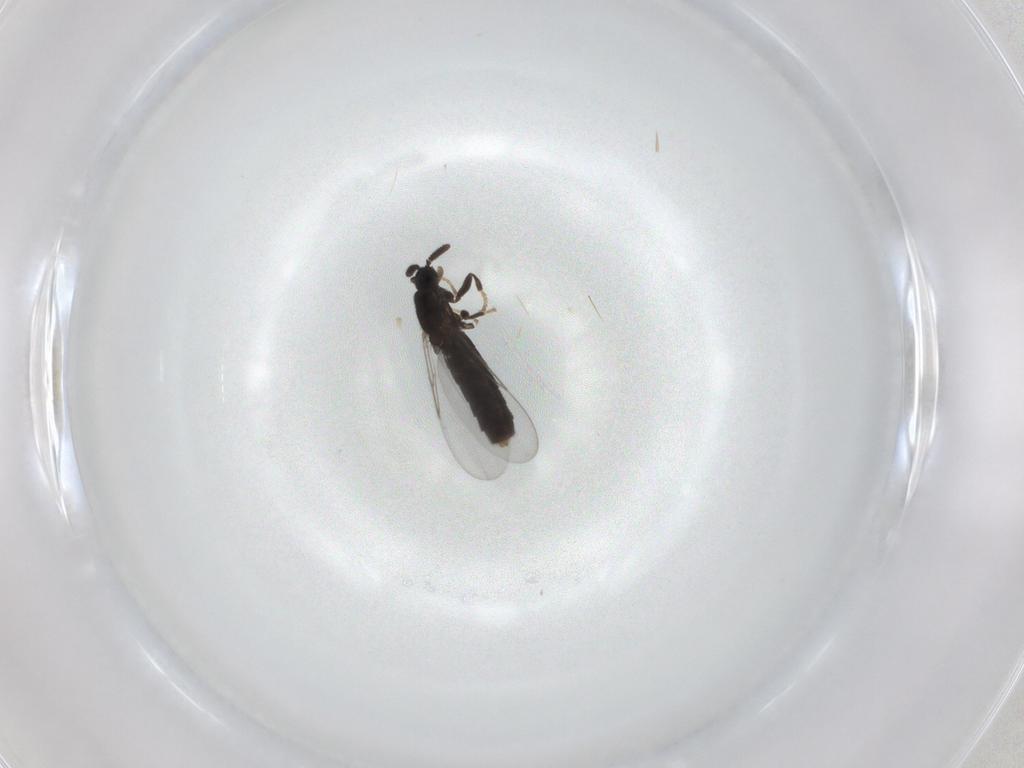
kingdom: Animalia
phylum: Arthropoda
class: Insecta
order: Diptera
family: Scatopsidae
